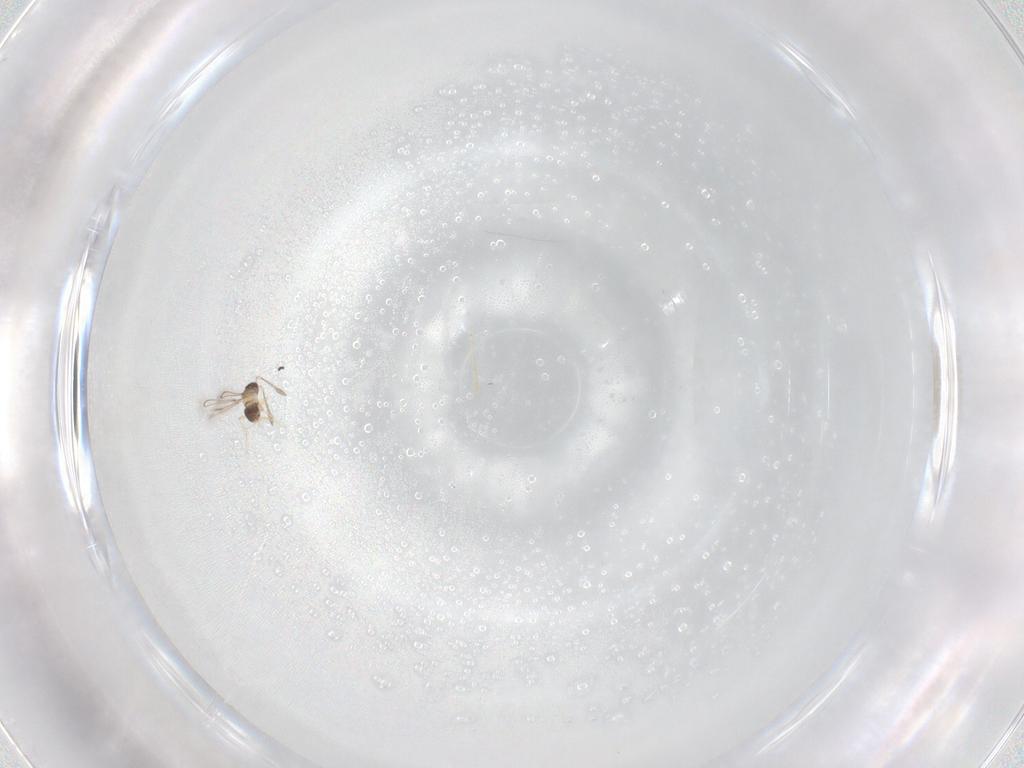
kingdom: Animalia
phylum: Arthropoda
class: Insecta
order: Hymenoptera
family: Mymaridae
